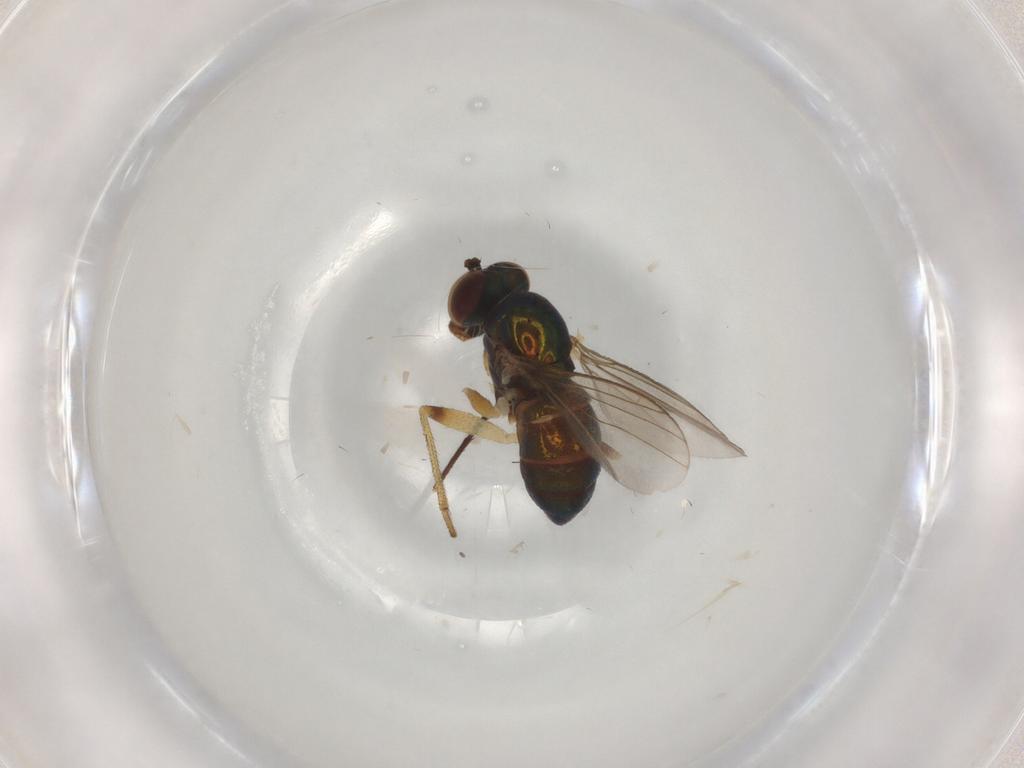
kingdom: Animalia
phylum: Arthropoda
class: Insecta
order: Diptera
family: Dolichopodidae
